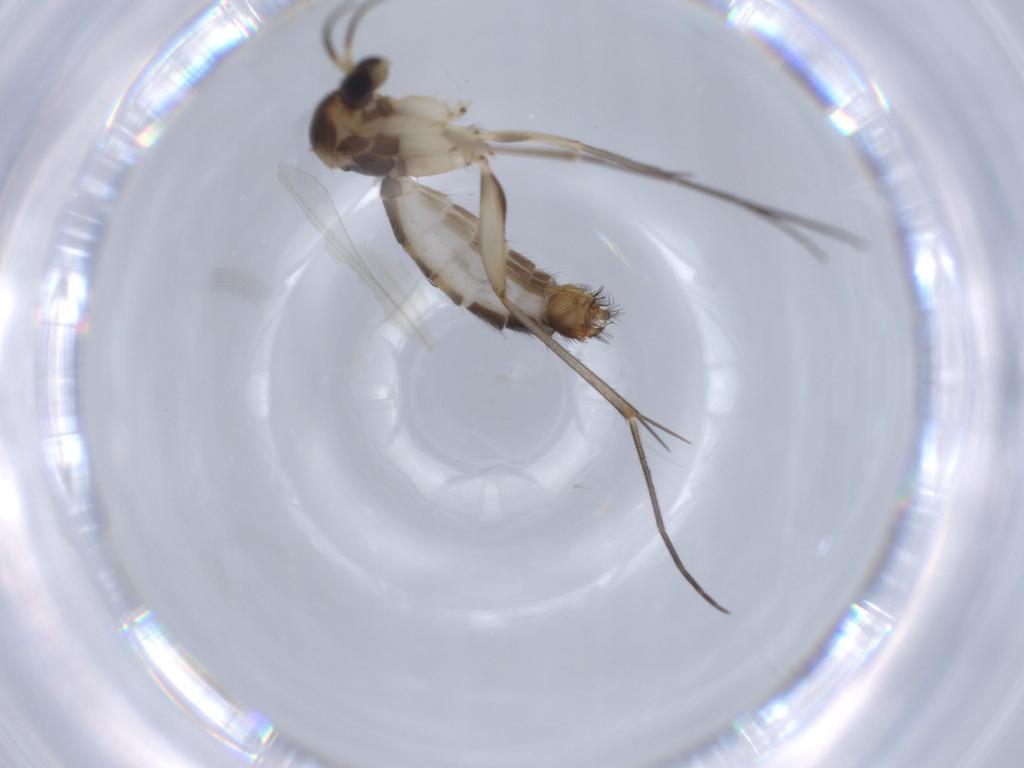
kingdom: Animalia
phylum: Arthropoda
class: Insecta
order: Diptera
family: Phoridae
